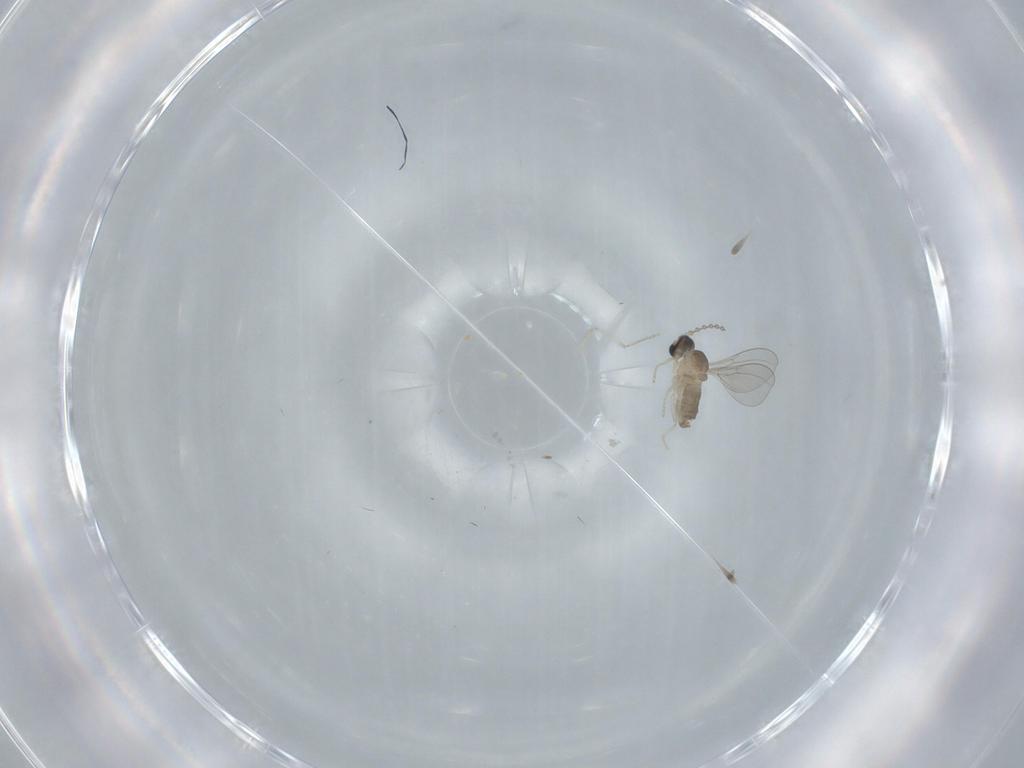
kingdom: Animalia
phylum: Arthropoda
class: Insecta
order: Diptera
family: Cecidomyiidae
